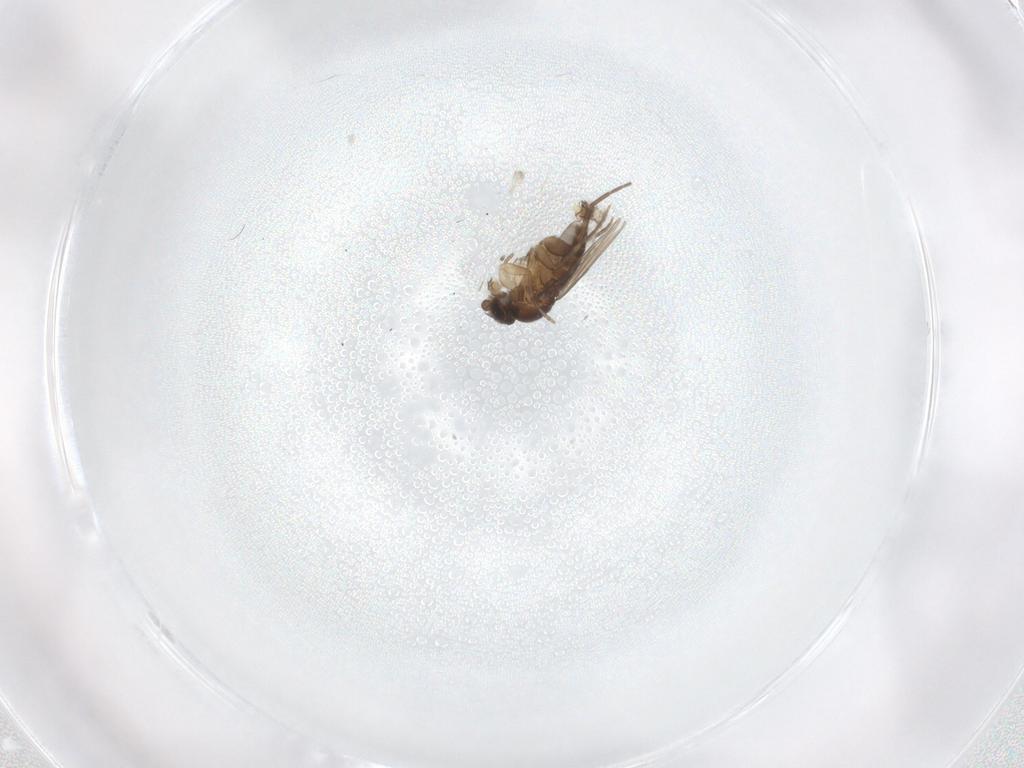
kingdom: Animalia
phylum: Arthropoda
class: Insecta
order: Diptera
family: Phoridae
